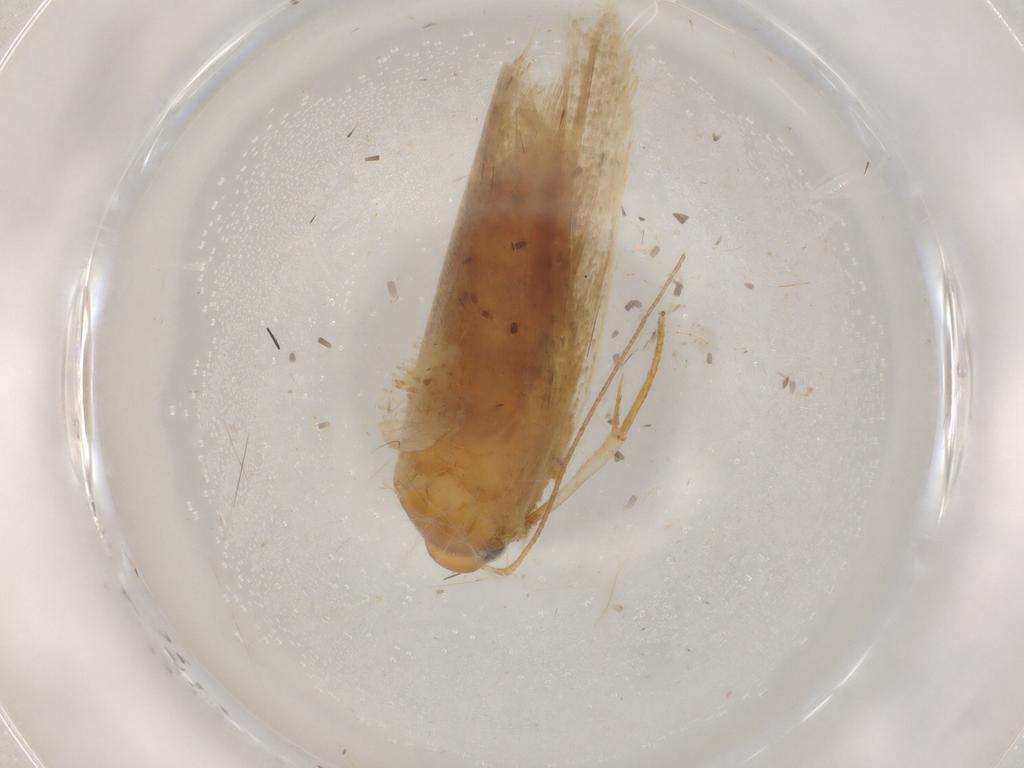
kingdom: Animalia
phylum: Arthropoda
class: Insecta
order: Lepidoptera
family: Gelechiidae
